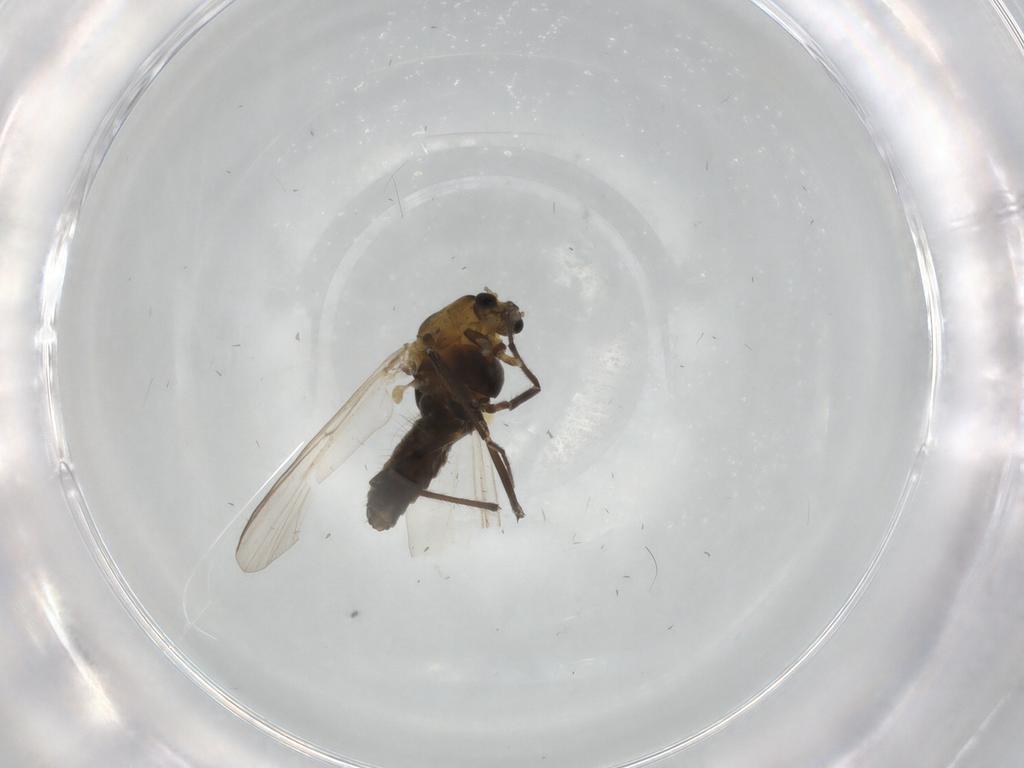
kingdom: Animalia
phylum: Arthropoda
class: Insecta
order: Diptera
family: Chironomidae
